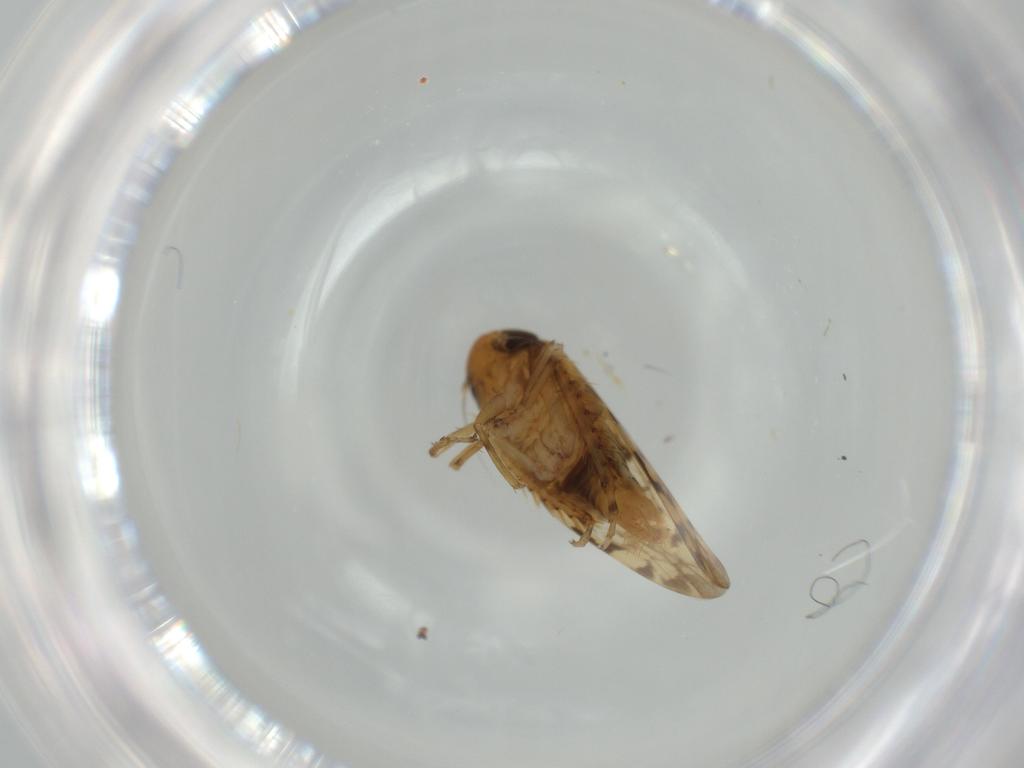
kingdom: Animalia
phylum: Arthropoda
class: Insecta
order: Hemiptera
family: Cicadellidae
